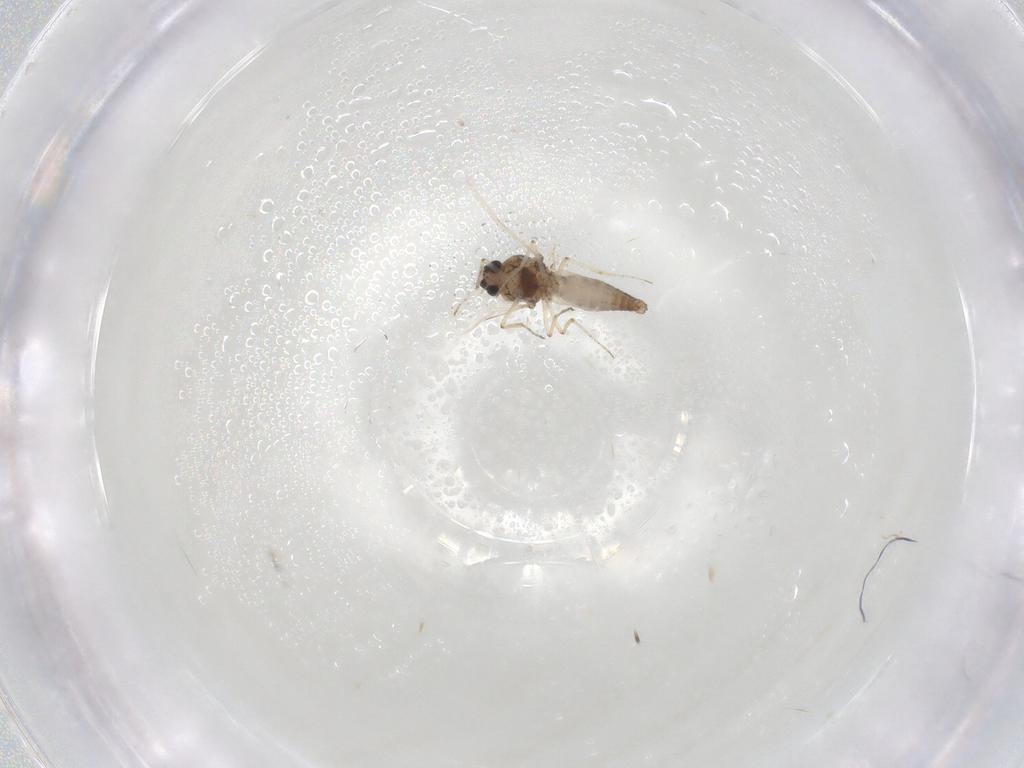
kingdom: Animalia
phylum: Arthropoda
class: Insecta
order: Diptera
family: Ceratopogonidae
